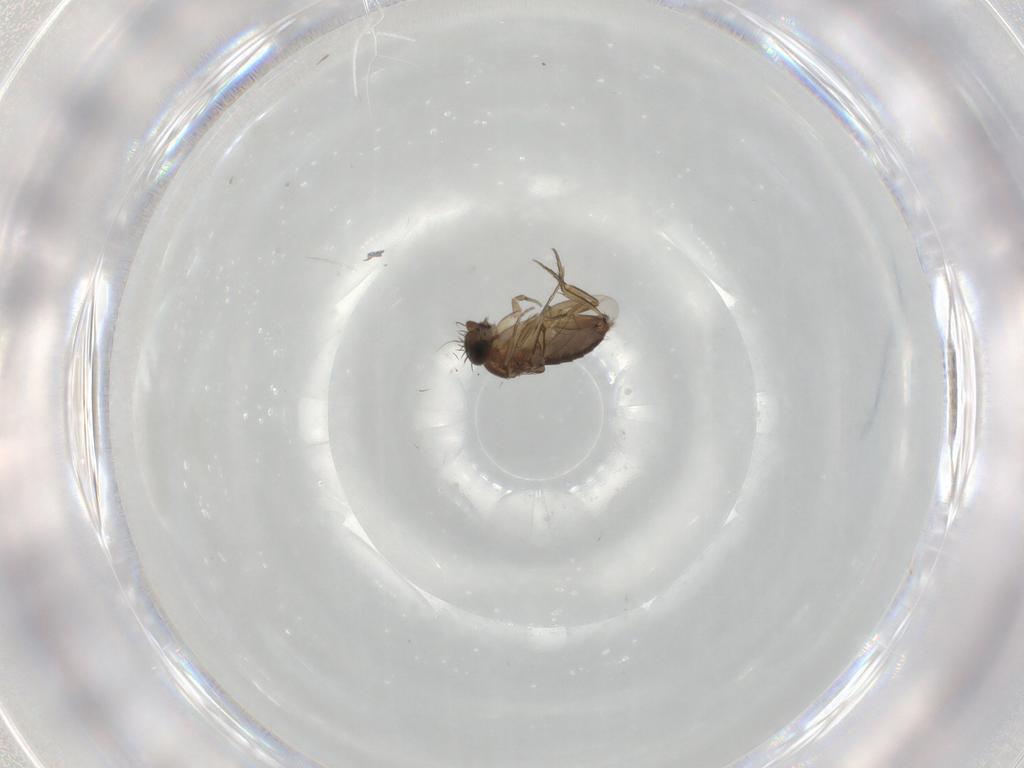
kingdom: Animalia
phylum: Arthropoda
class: Insecta
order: Diptera
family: Phoridae
